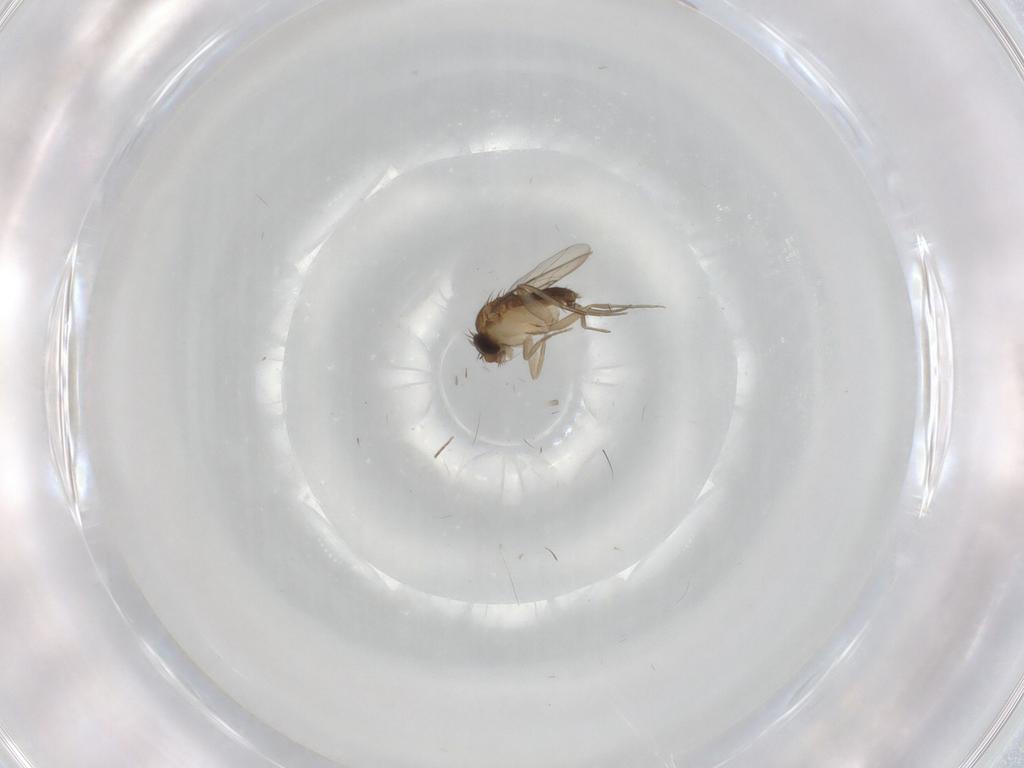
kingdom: Animalia
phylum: Arthropoda
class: Insecta
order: Diptera
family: Phoridae
